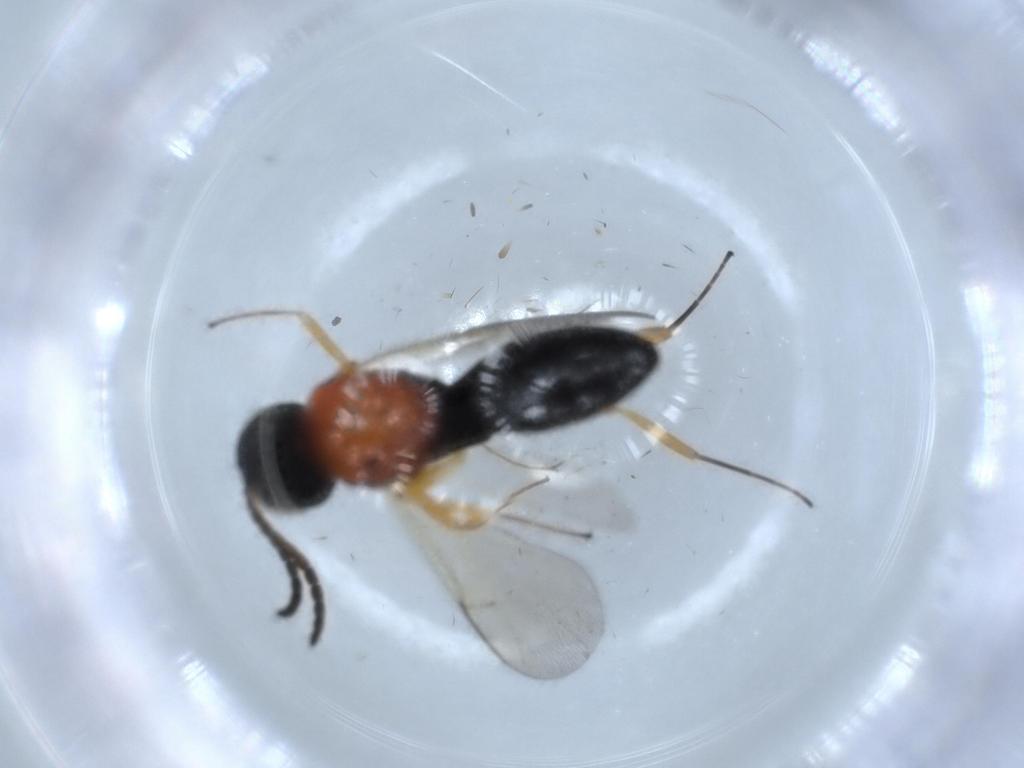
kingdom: Animalia
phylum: Arthropoda
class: Insecta
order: Hymenoptera
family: Scelionidae
